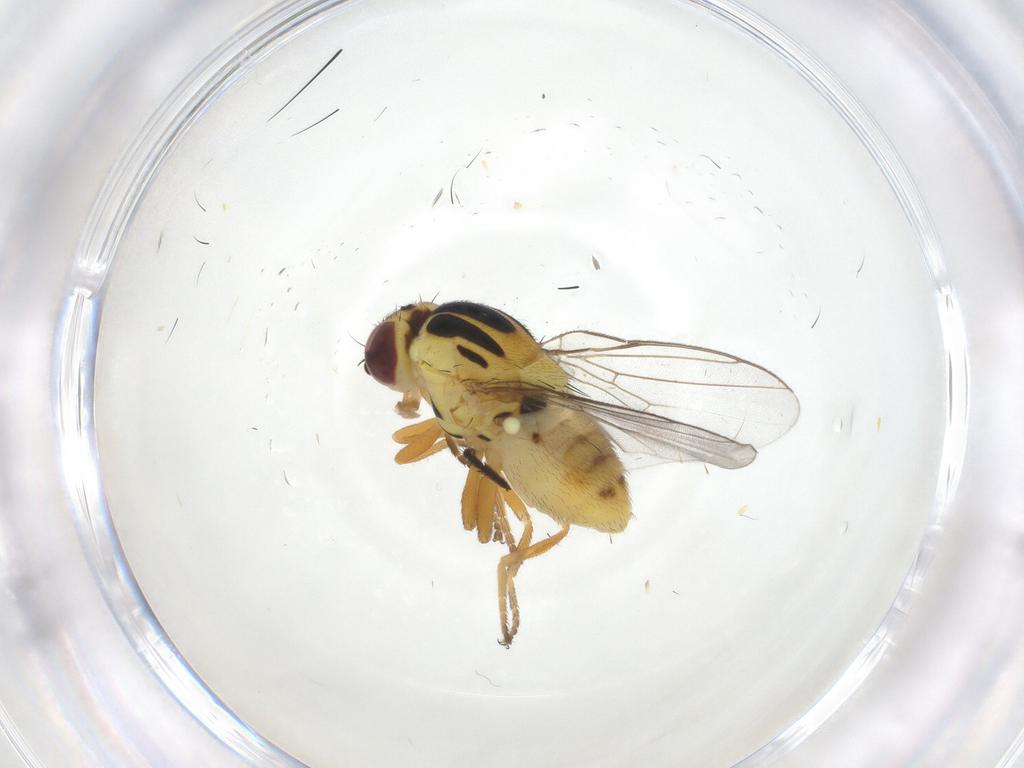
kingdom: Animalia
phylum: Arthropoda
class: Insecta
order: Diptera
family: Chloropidae
